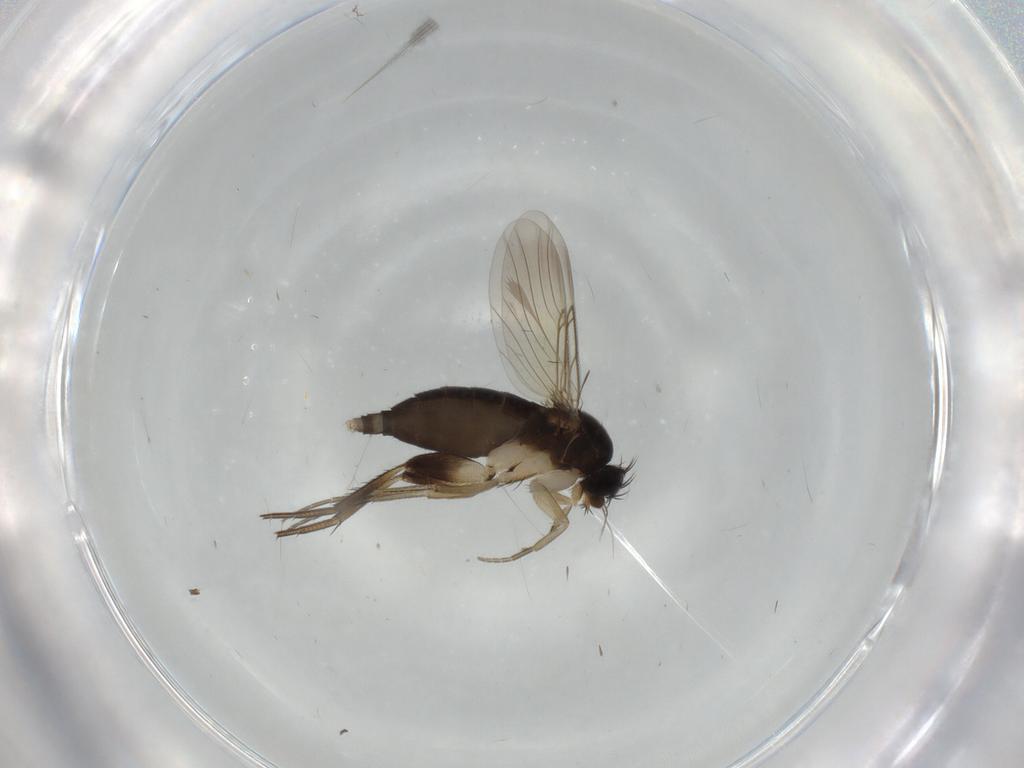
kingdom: Animalia
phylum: Arthropoda
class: Insecta
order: Diptera
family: Phoridae
